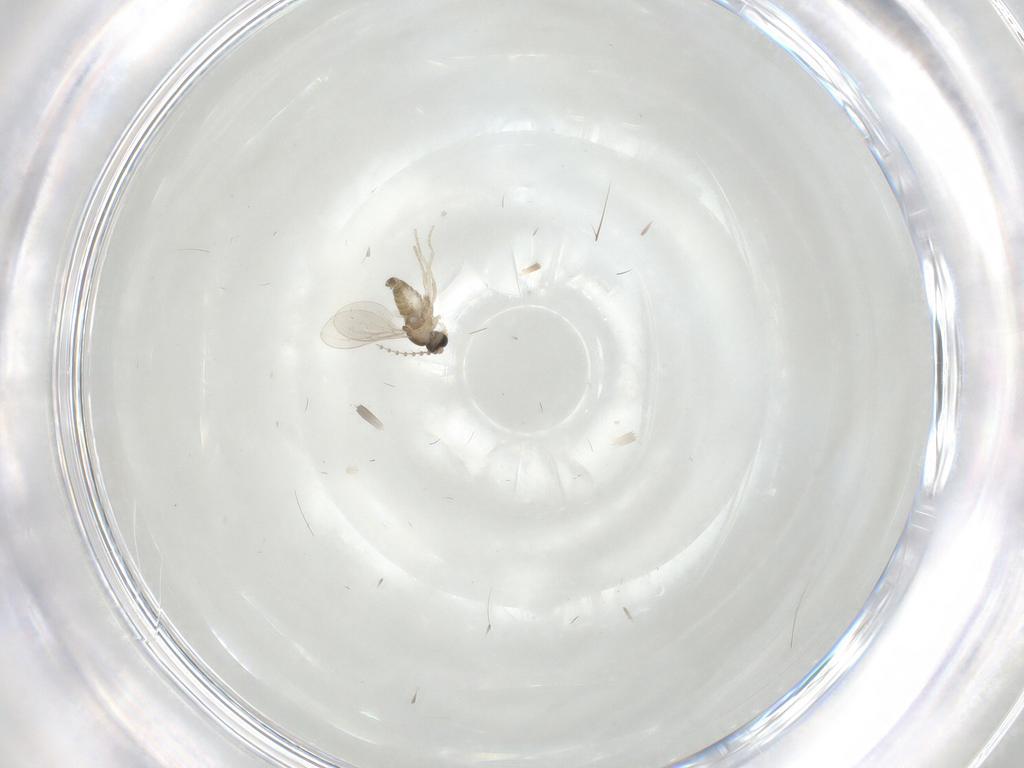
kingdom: Animalia
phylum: Arthropoda
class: Insecta
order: Diptera
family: Cecidomyiidae
